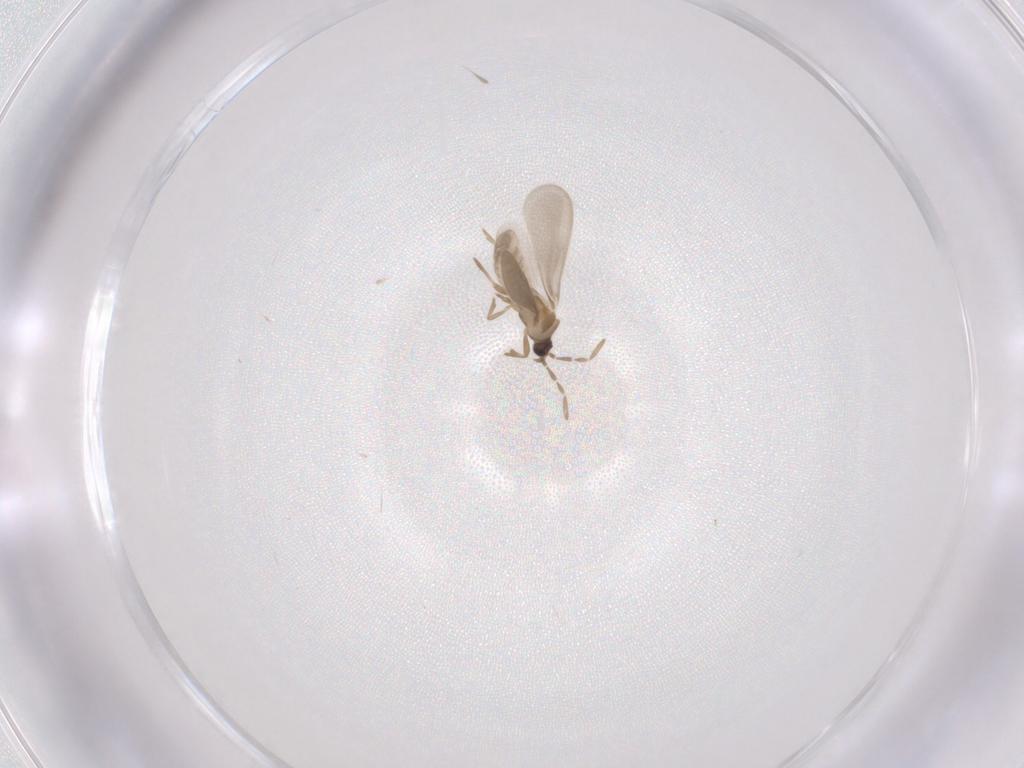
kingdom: Animalia
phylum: Arthropoda
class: Insecta
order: Hemiptera
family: Enicocephalidae
